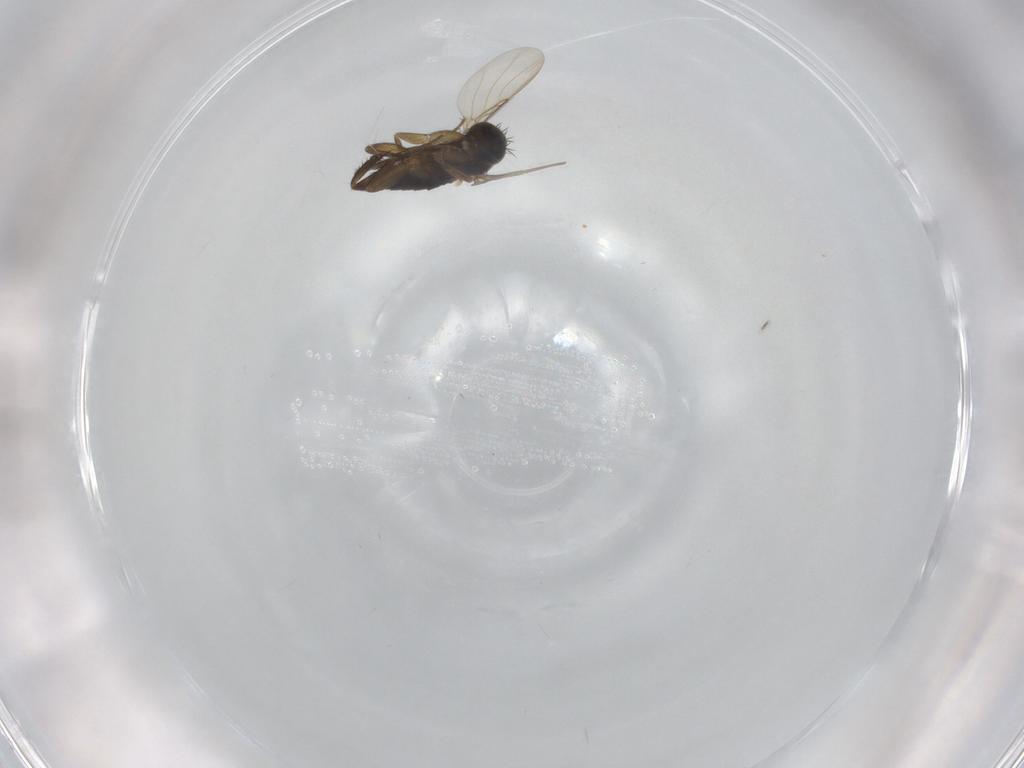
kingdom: Animalia
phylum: Arthropoda
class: Insecta
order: Diptera
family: Phoridae
